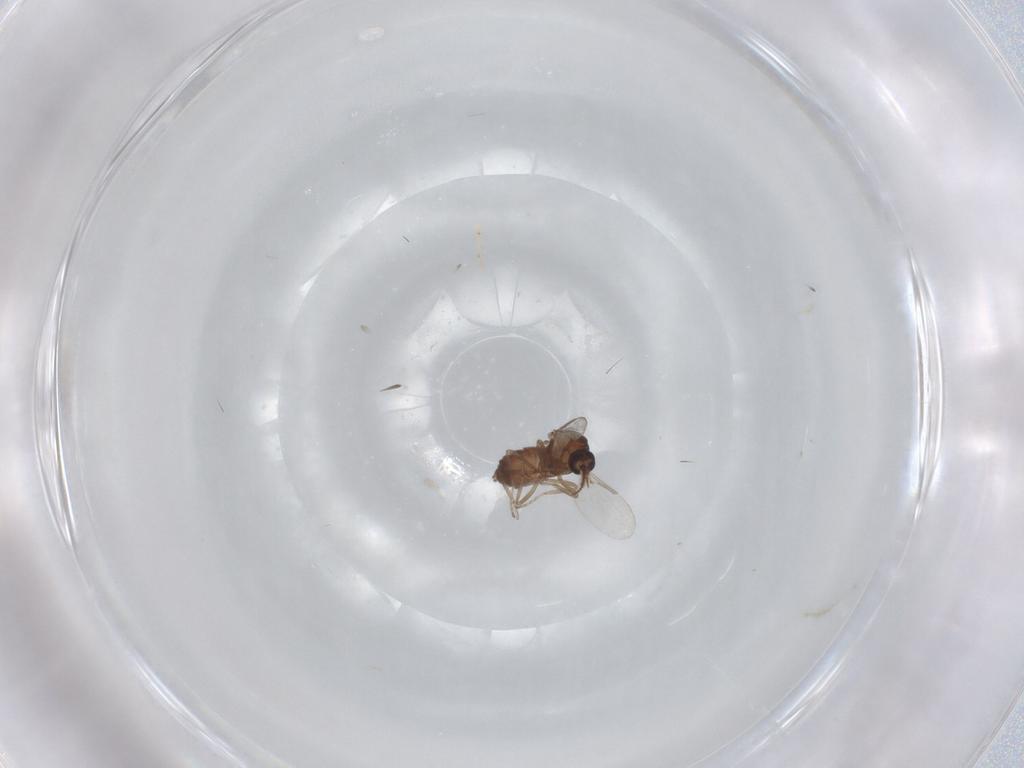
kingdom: Animalia
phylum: Arthropoda
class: Insecta
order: Diptera
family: Ceratopogonidae
